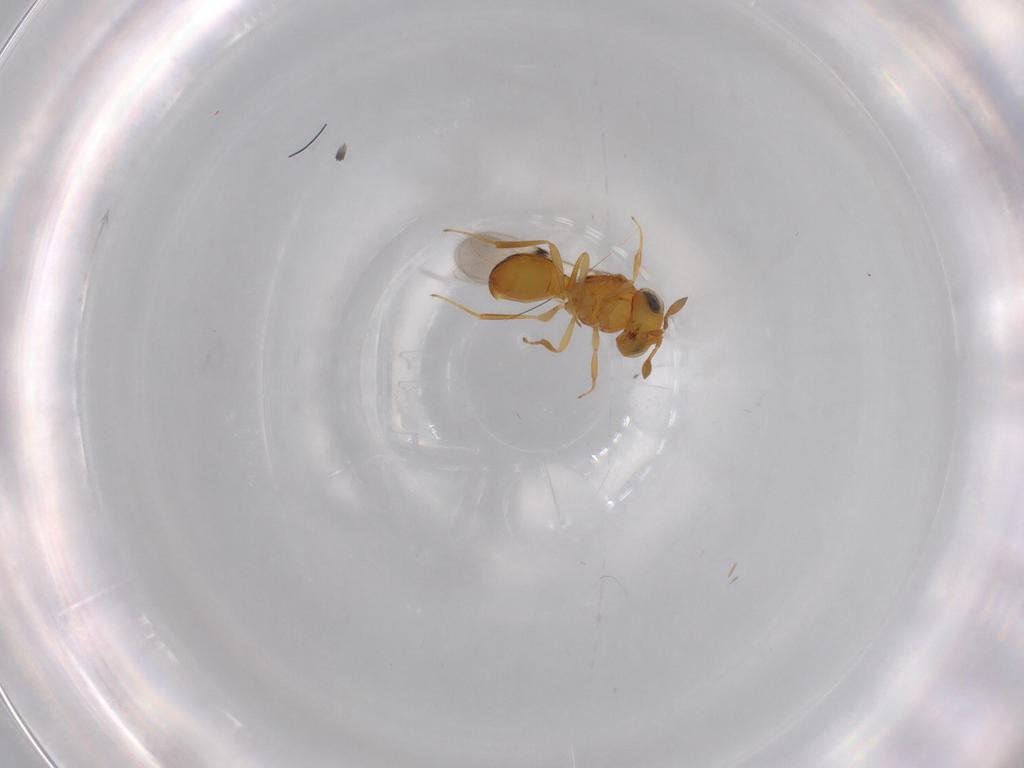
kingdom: Animalia
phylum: Arthropoda
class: Insecta
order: Hymenoptera
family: Scelionidae
